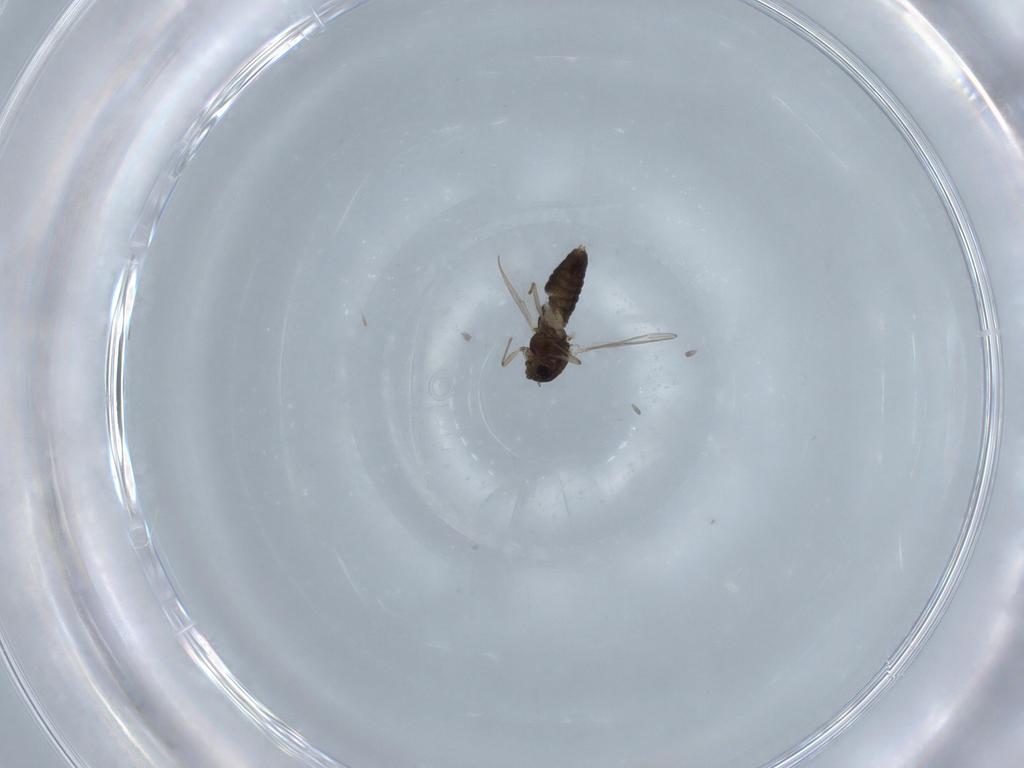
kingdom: Animalia
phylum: Arthropoda
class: Insecta
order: Diptera
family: Chironomidae
